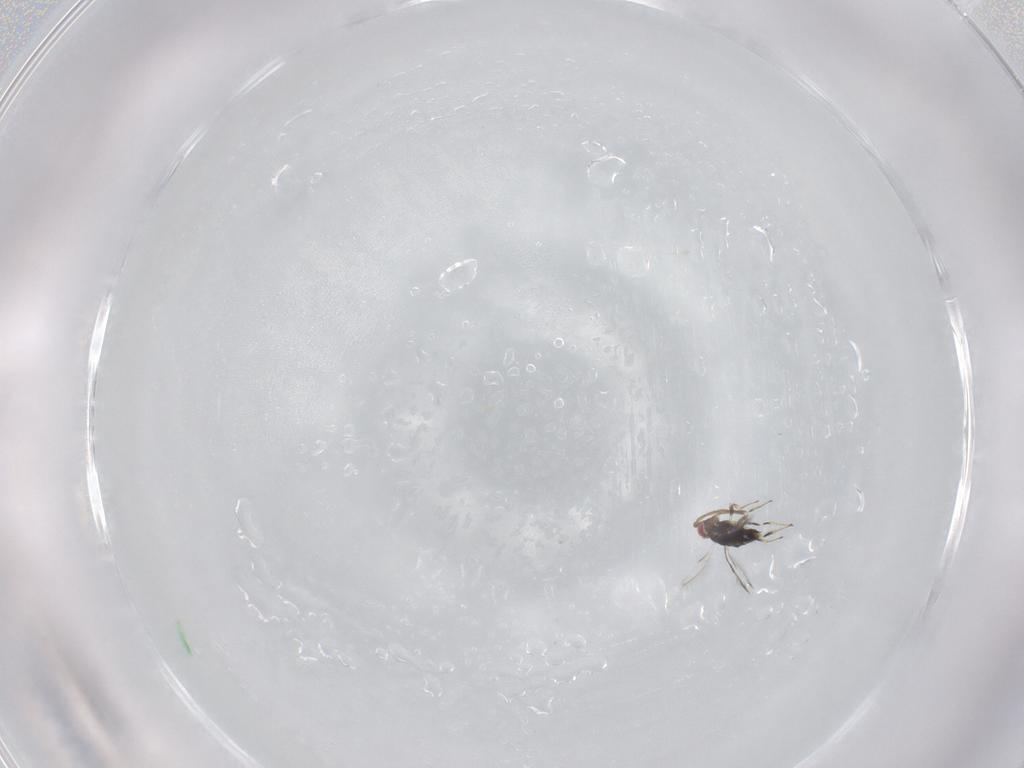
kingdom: Animalia
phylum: Arthropoda
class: Insecta
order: Hymenoptera
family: Azotidae
